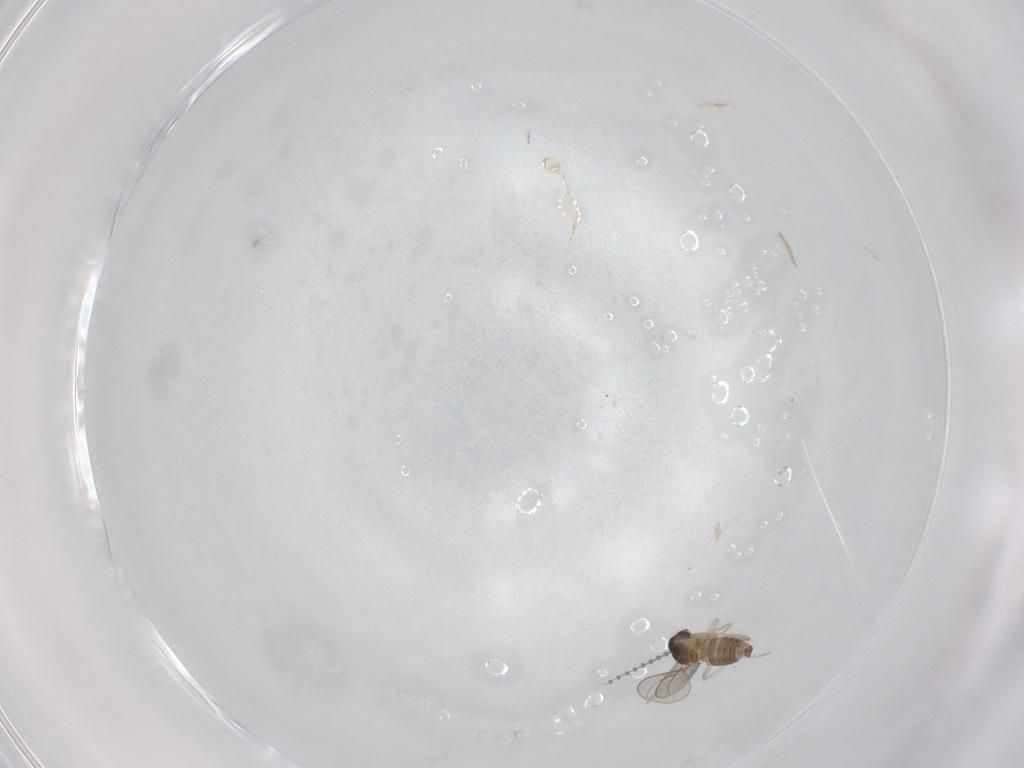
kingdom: Animalia
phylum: Arthropoda
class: Insecta
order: Diptera
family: Cecidomyiidae
